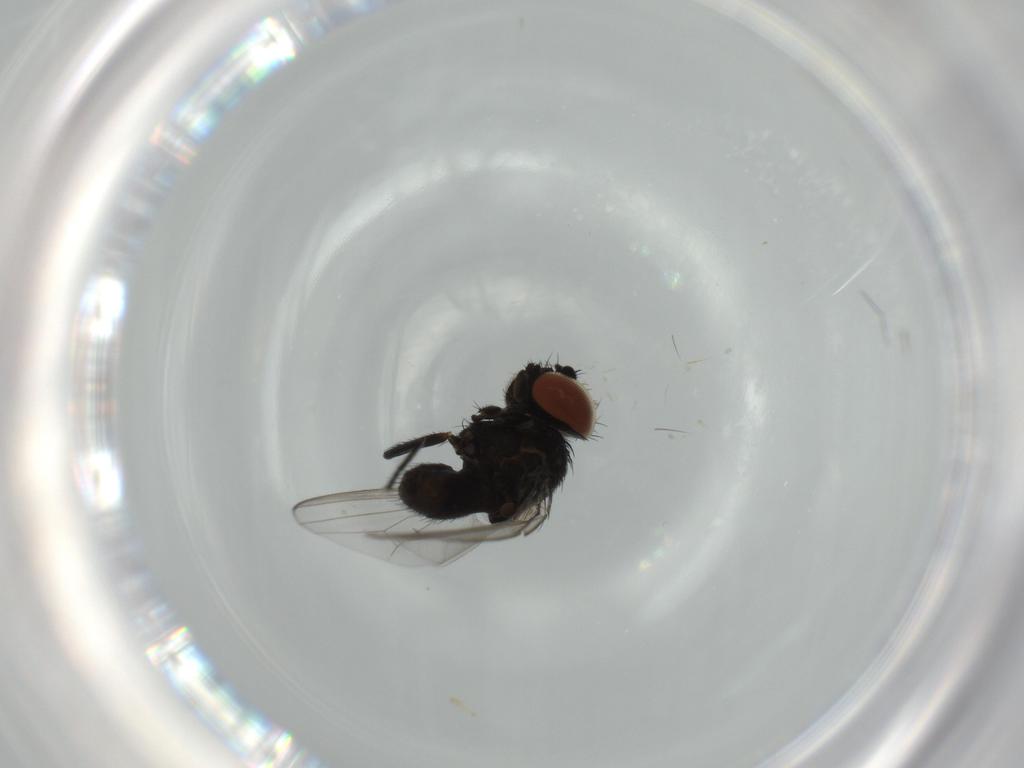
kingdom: Animalia
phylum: Arthropoda
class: Insecta
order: Diptera
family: Milichiidae
